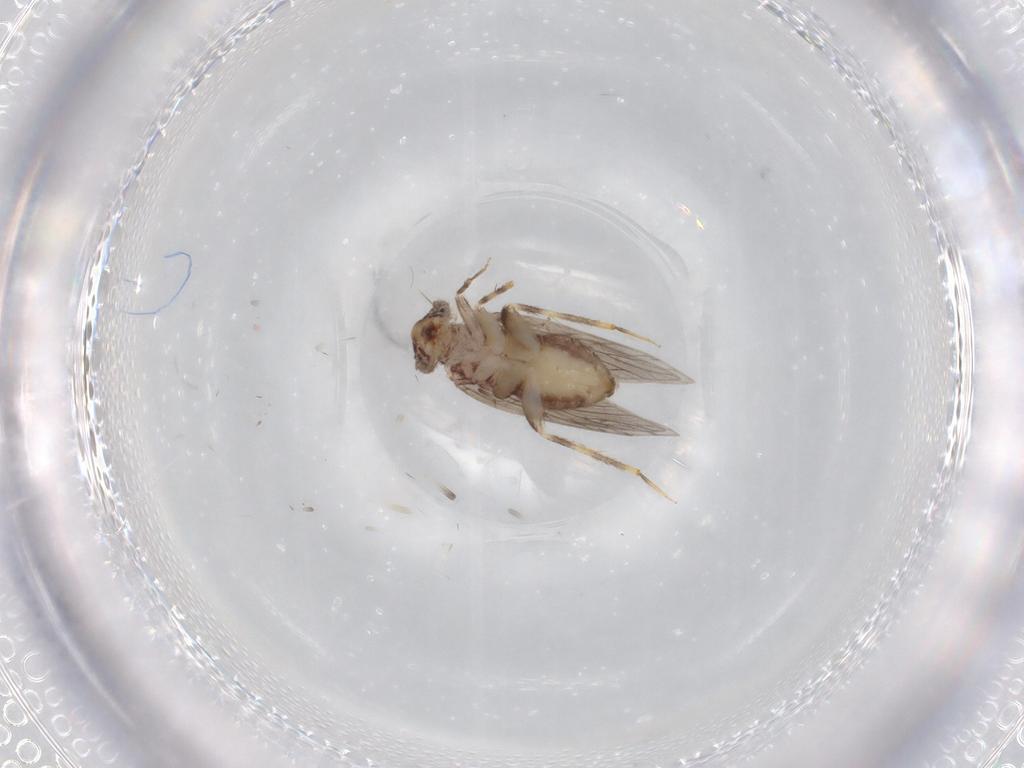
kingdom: Animalia
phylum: Arthropoda
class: Insecta
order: Psocodea
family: Lepidopsocidae
